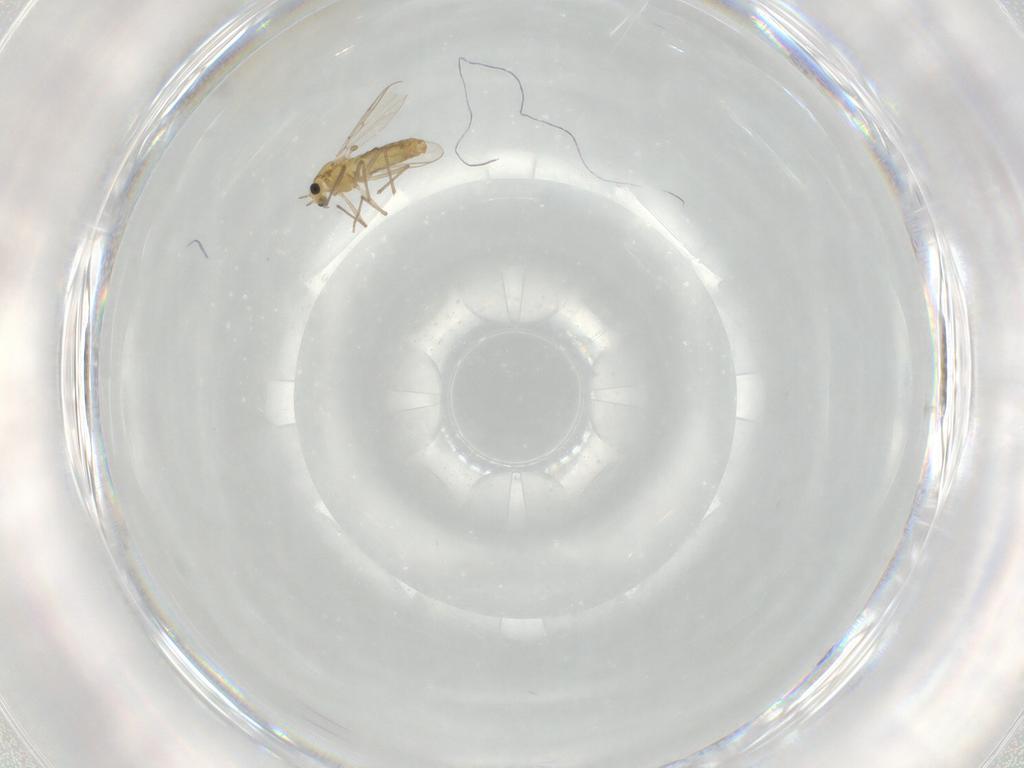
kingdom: Animalia
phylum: Arthropoda
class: Insecta
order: Diptera
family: Chironomidae
